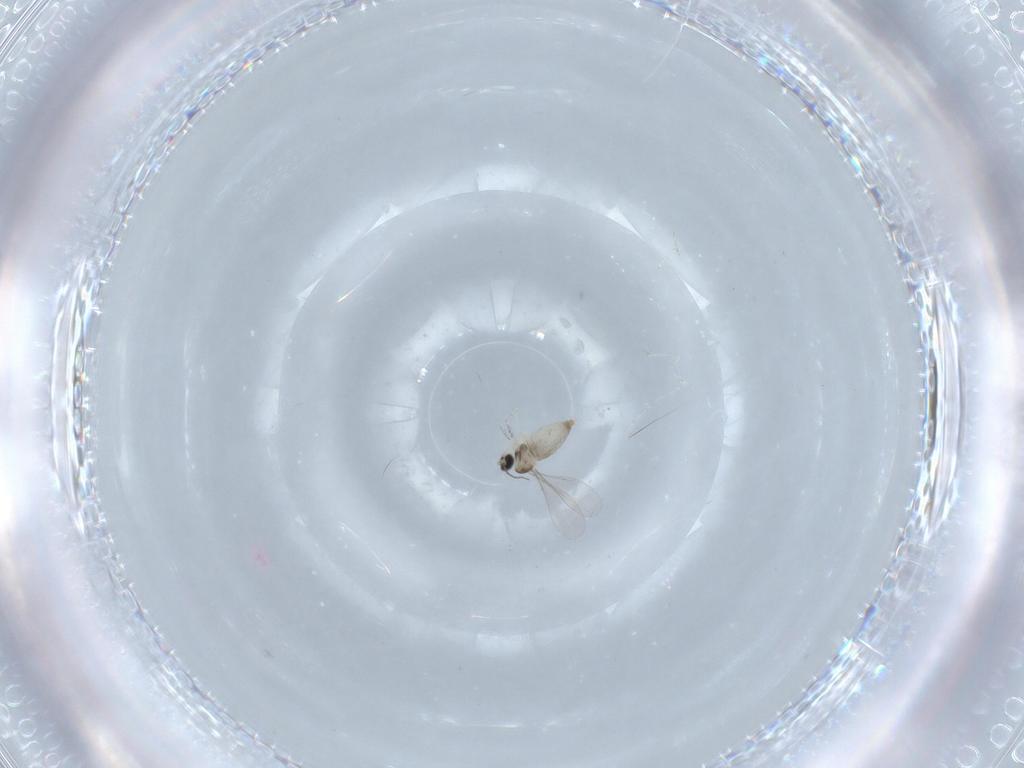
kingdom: Animalia
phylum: Arthropoda
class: Insecta
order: Diptera
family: Cecidomyiidae
